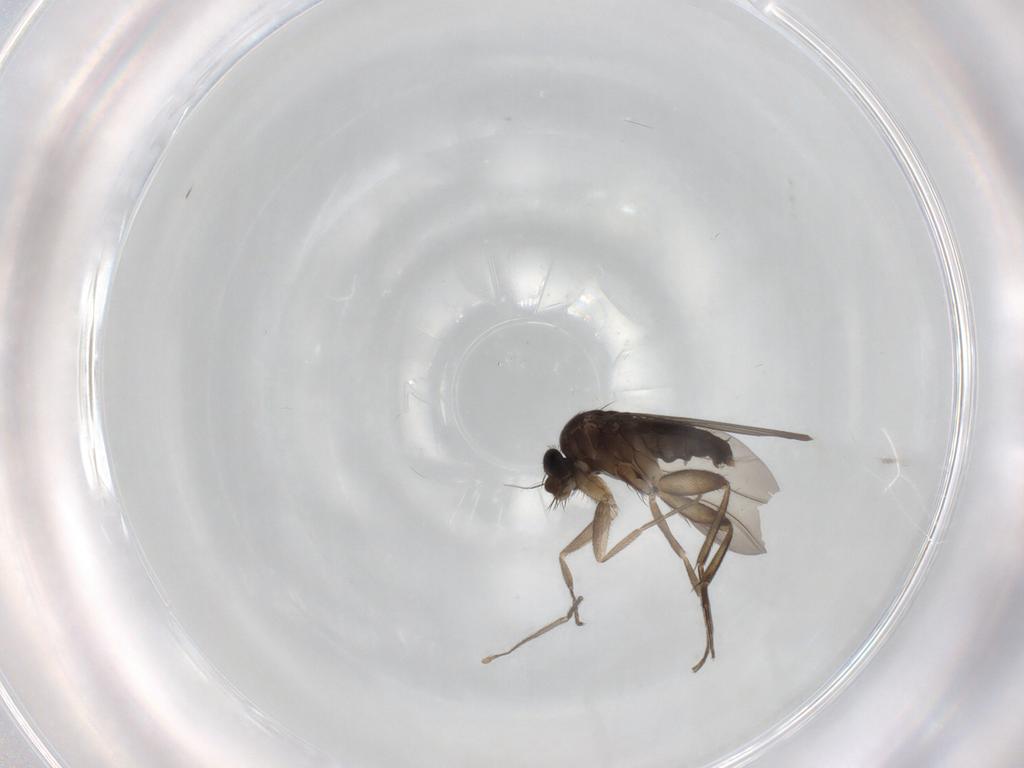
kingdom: Animalia
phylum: Arthropoda
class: Insecta
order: Diptera
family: Phoridae
